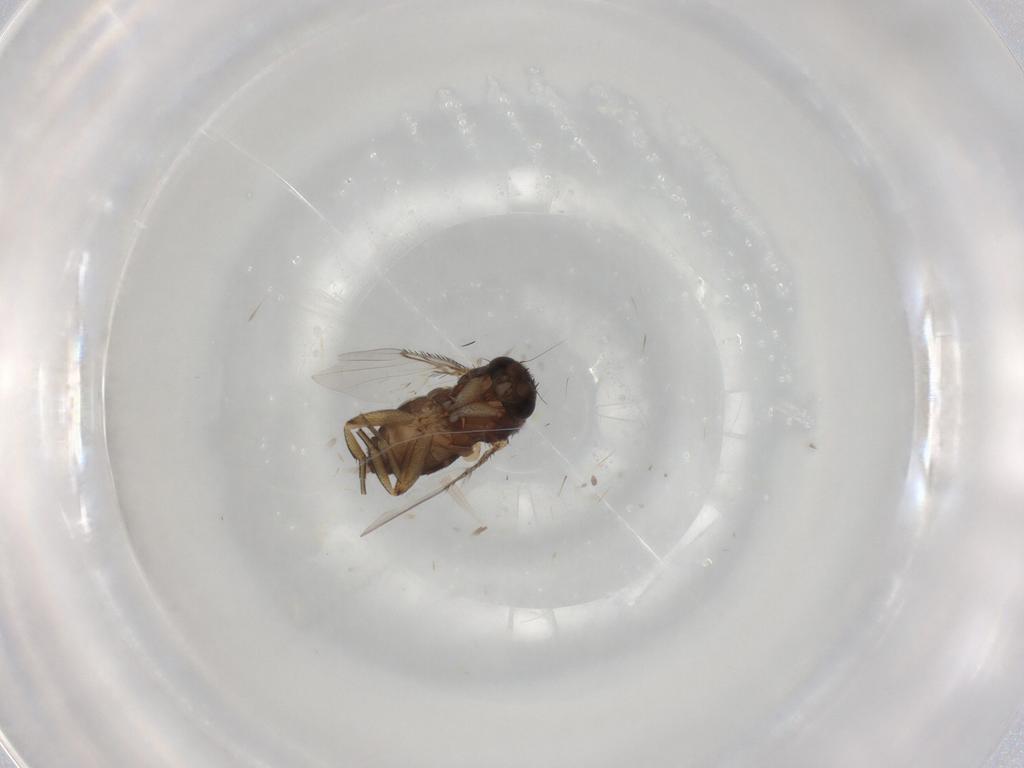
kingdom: Animalia
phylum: Arthropoda
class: Insecta
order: Diptera
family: Phoridae
